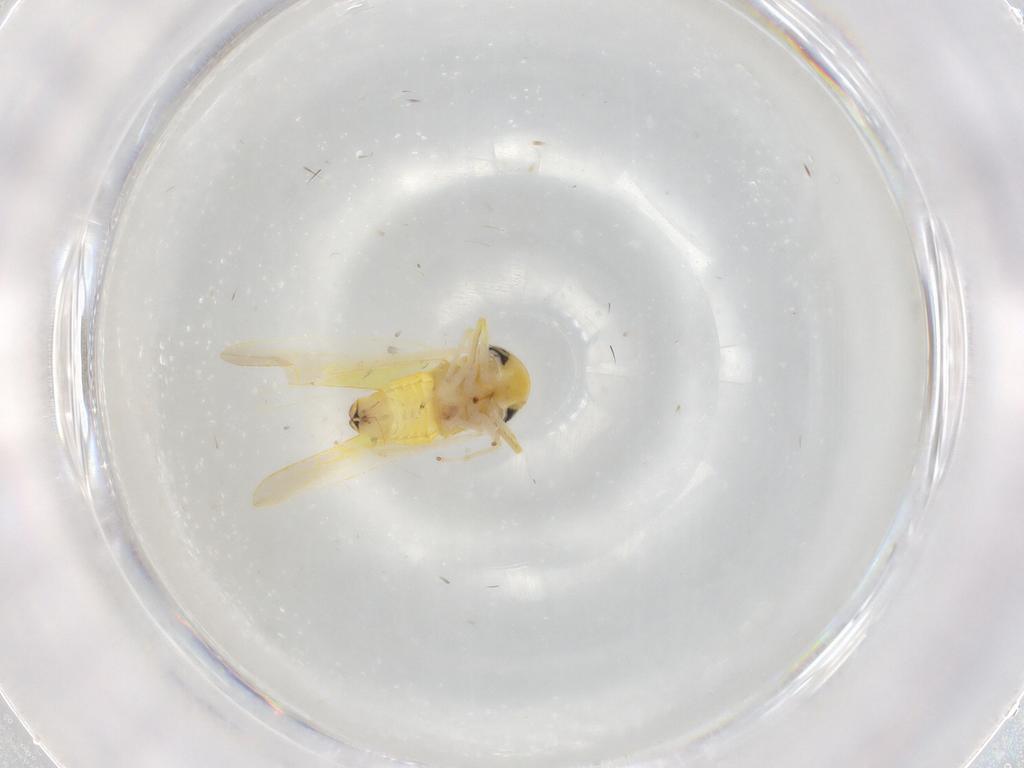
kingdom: Animalia
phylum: Arthropoda
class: Insecta
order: Hemiptera
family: Cicadellidae
